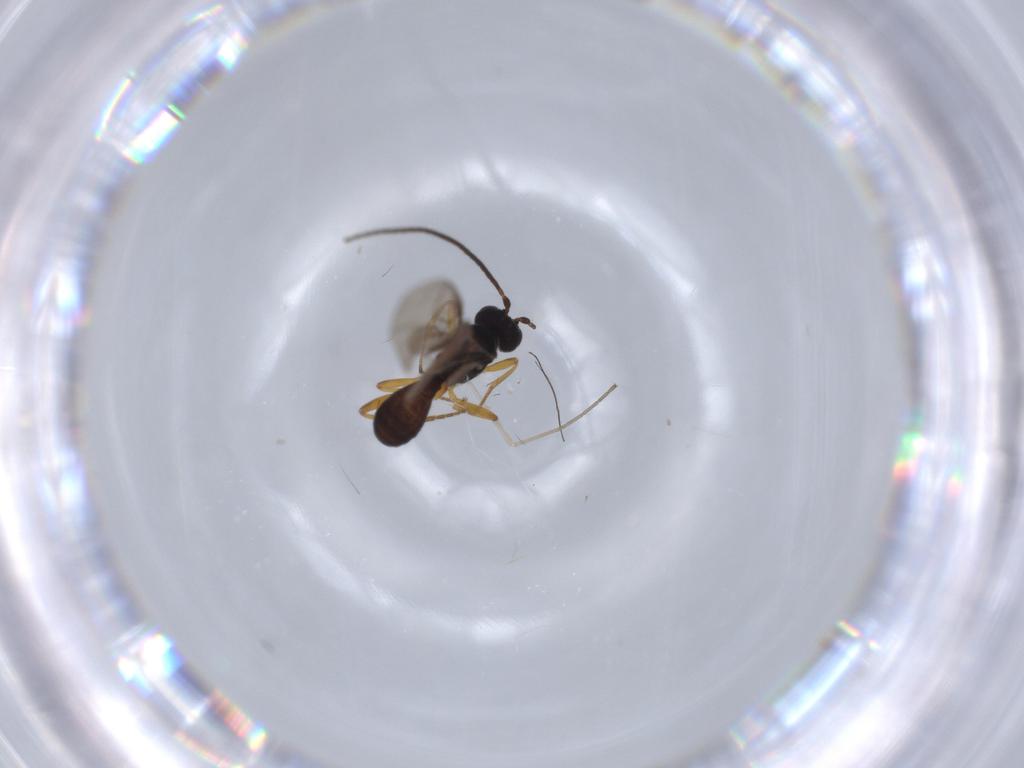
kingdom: Animalia
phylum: Arthropoda
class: Insecta
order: Hymenoptera
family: Braconidae
